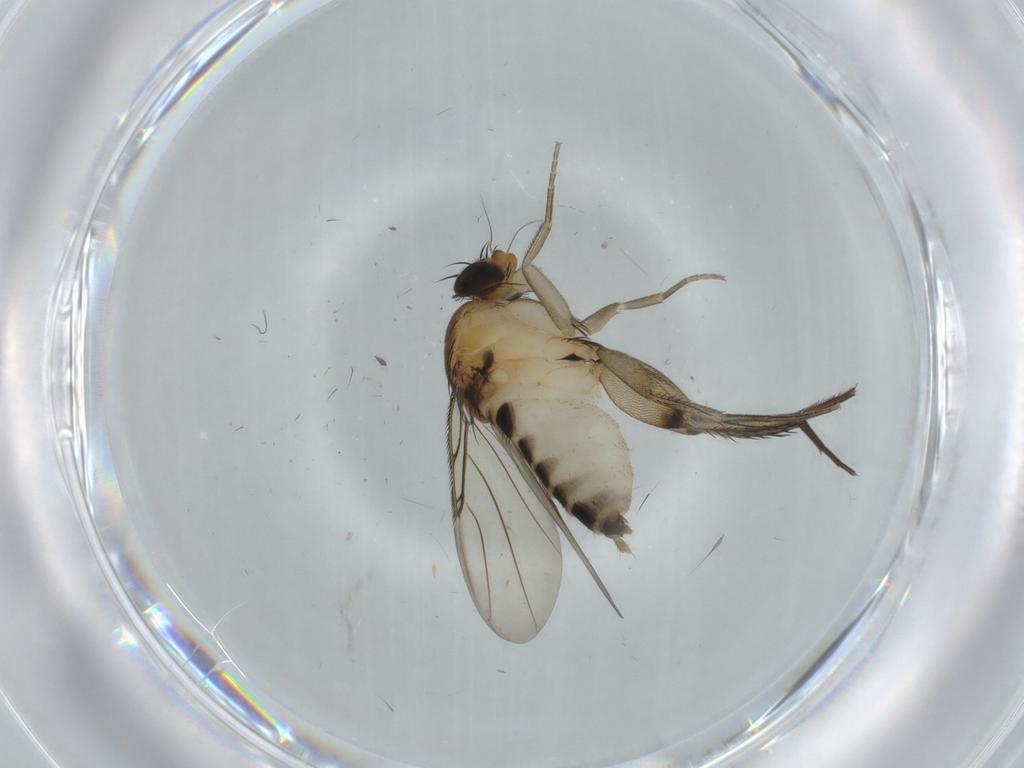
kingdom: Animalia
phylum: Arthropoda
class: Insecta
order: Diptera
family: Phoridae
